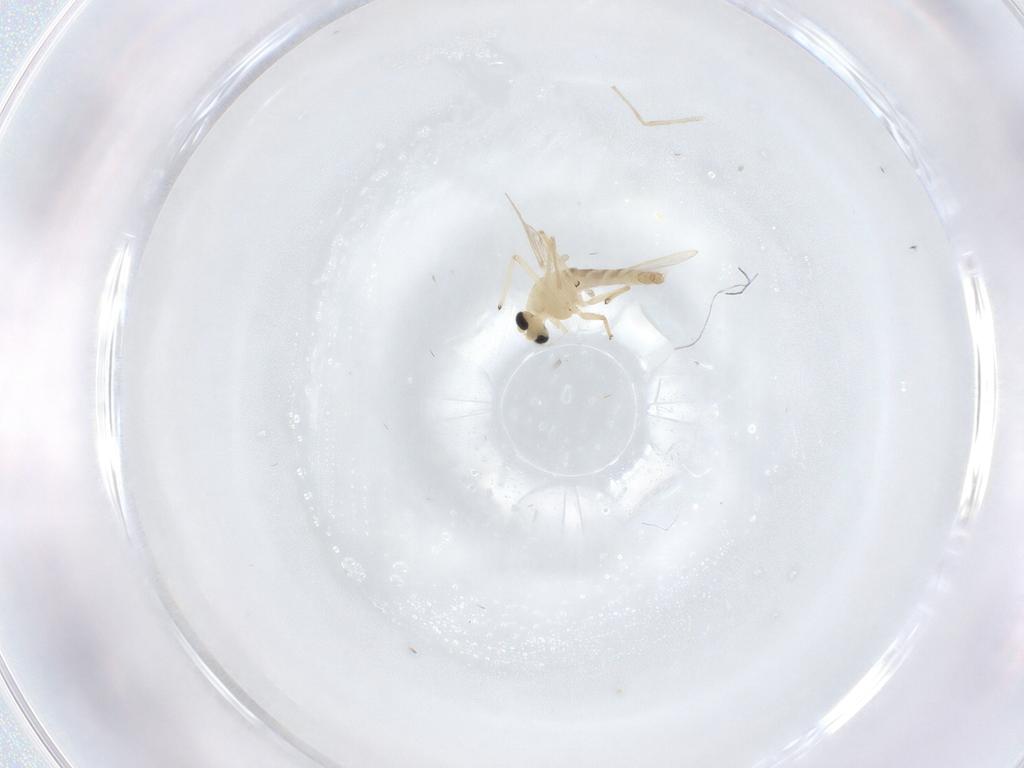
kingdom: Animalia
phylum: Arthropoda
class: Insecta
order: Diptera
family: Chironomidae
